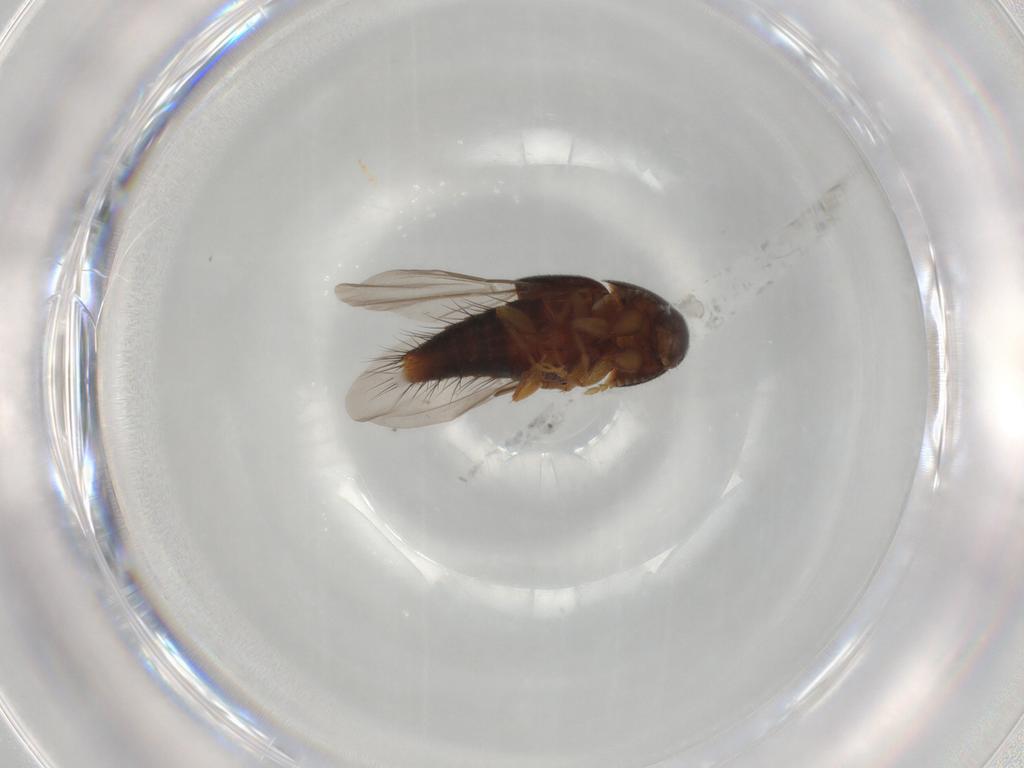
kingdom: Animalia
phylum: Arthropoda
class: Insecta
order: Coleoptera
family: Staphylinidae
